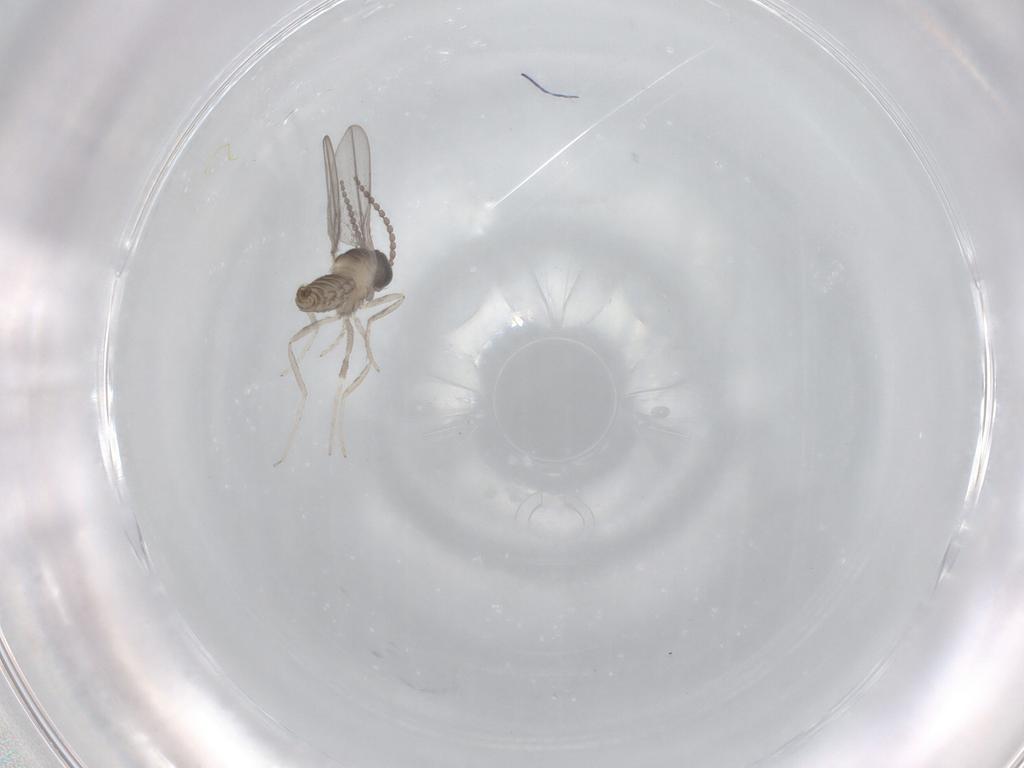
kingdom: Animalia
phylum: Arthropoda
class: Insecta
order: Diptera
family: Cecidomyiidae
